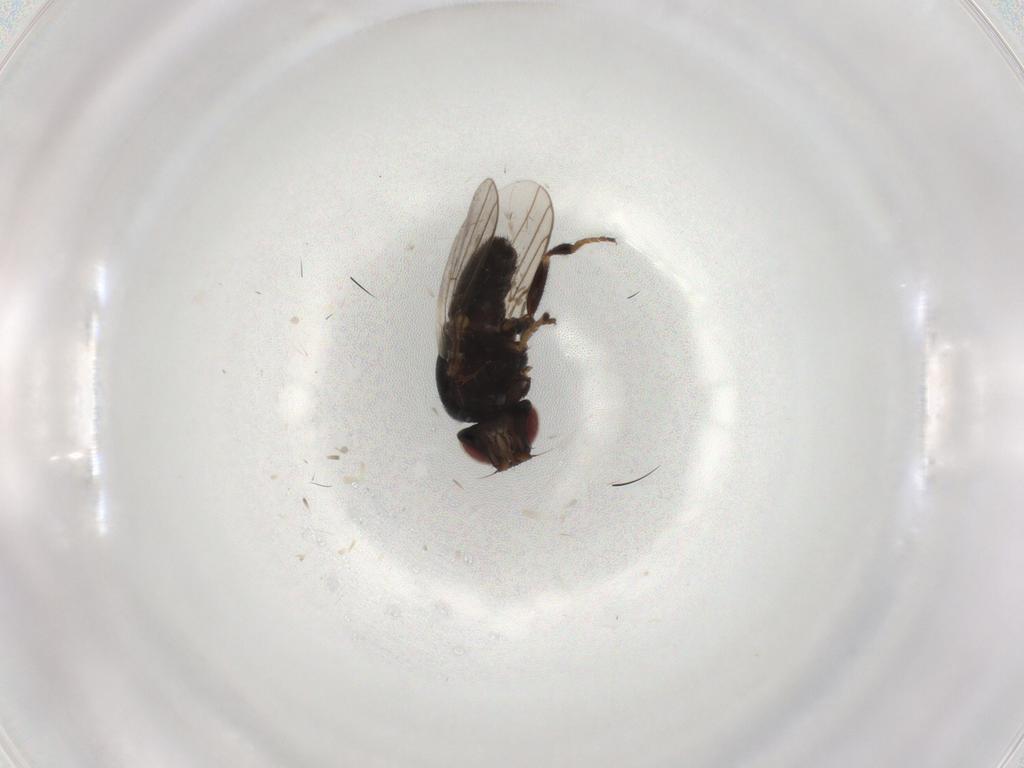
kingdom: Animalia
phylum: Arthropoda
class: Insecta
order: Diptera
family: Chloropidae
